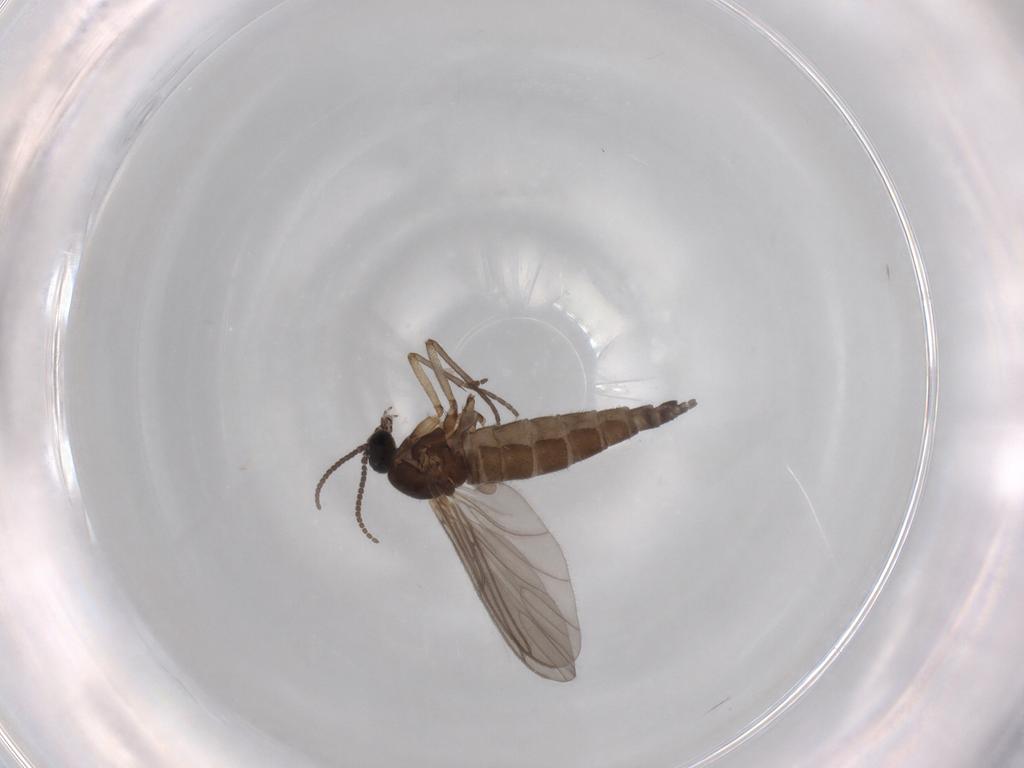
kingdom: Animalia
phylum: Arthropoda
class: Insecta
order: Diptera
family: Sciaridae
